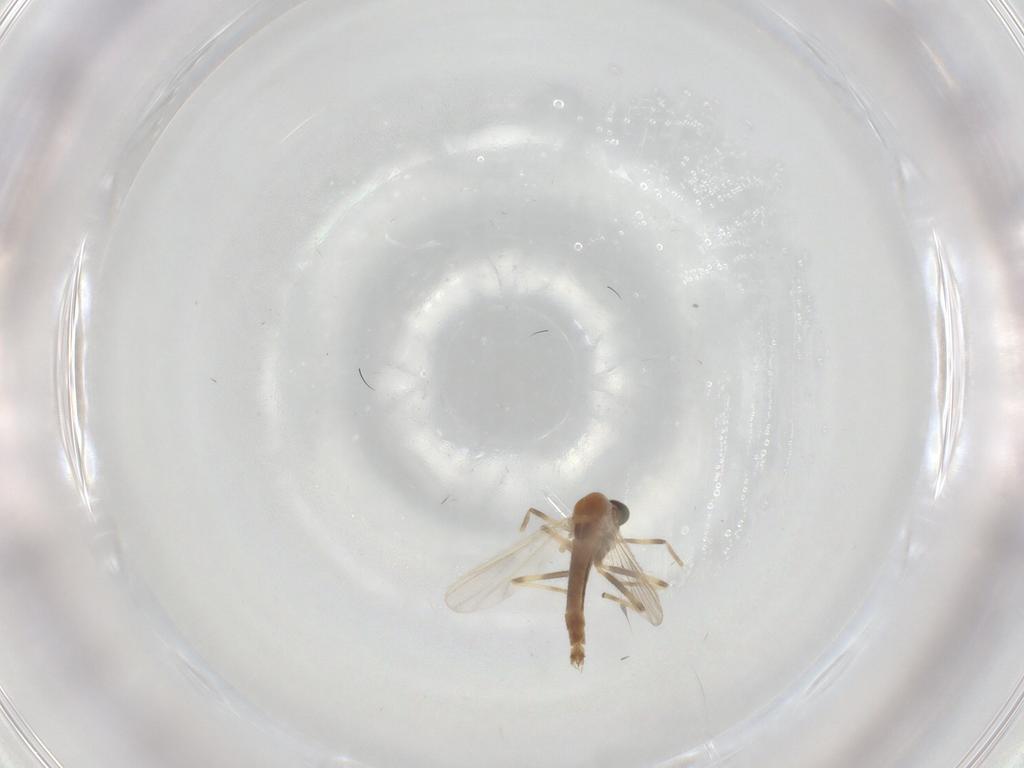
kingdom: Animalia
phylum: Arthropoda
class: Insecta
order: Diptera
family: Chironomidae
